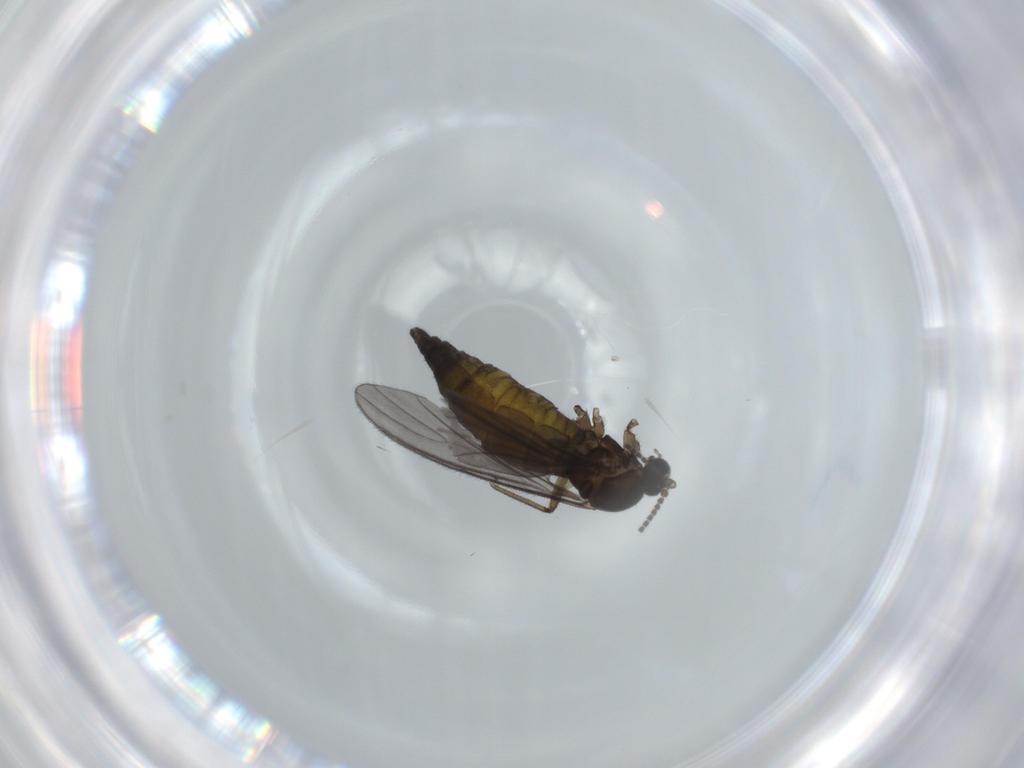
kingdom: Animalia
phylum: Arthropoda
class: Insecta
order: Diptera
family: Sciaridae
